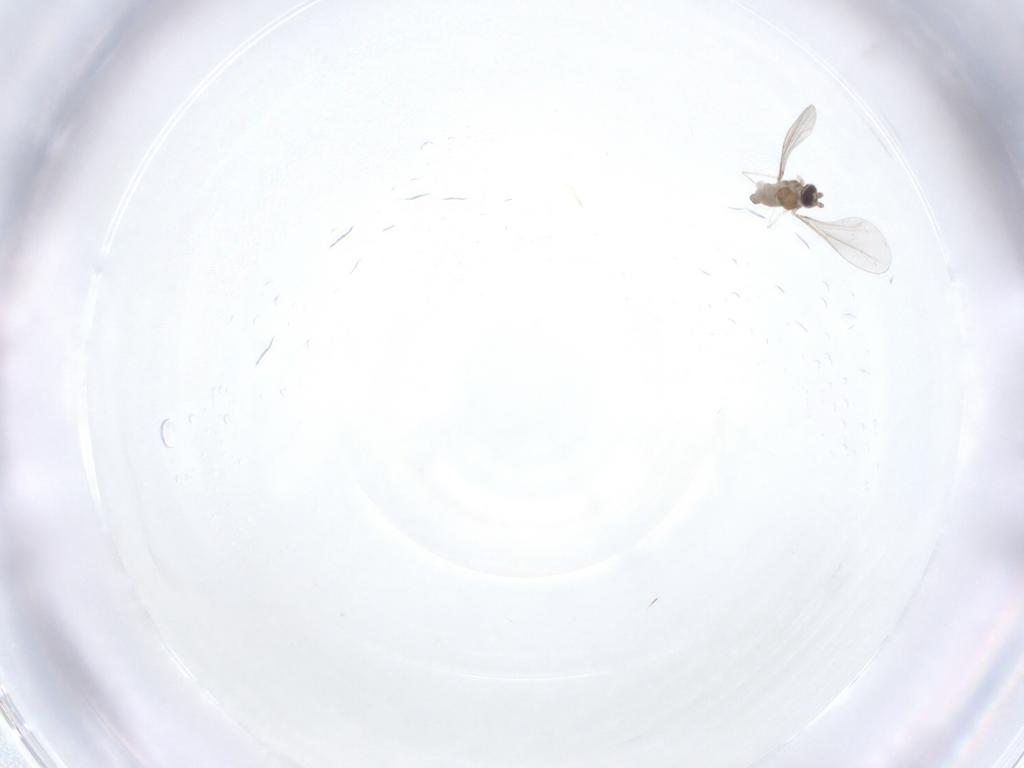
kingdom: Animalia
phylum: Arthropoda
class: Insecta
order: Diptera
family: Cecidomyiidae
